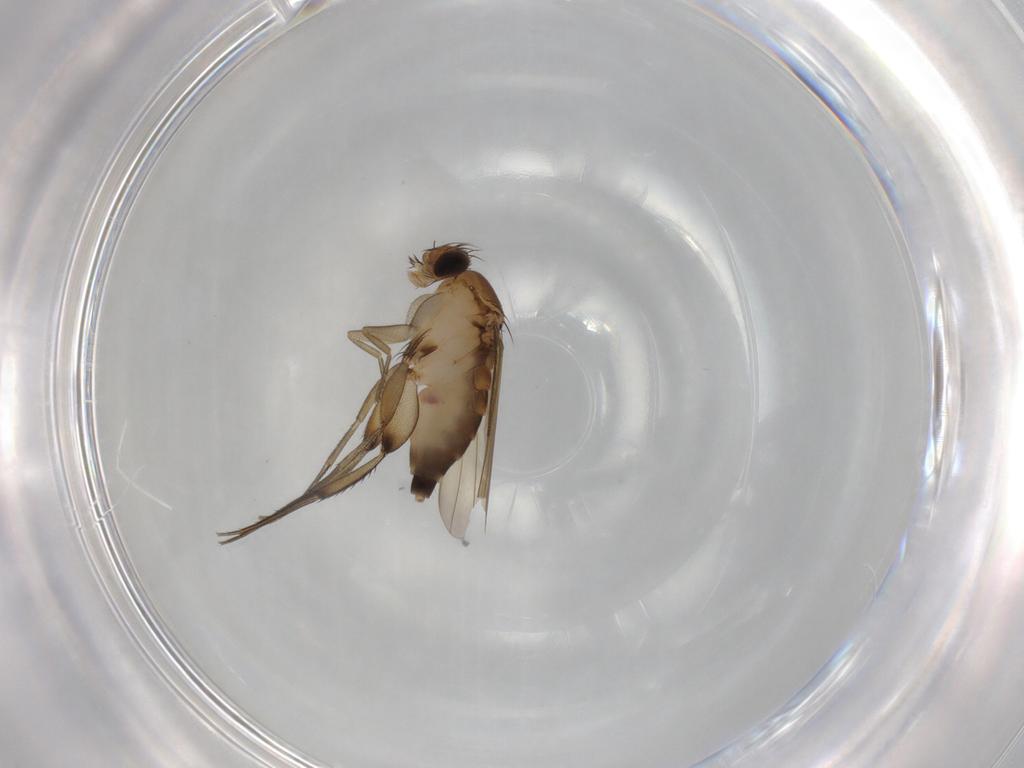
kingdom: Animalia
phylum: Arthropoda
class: Insecta
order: Diptera
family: Phoridae
